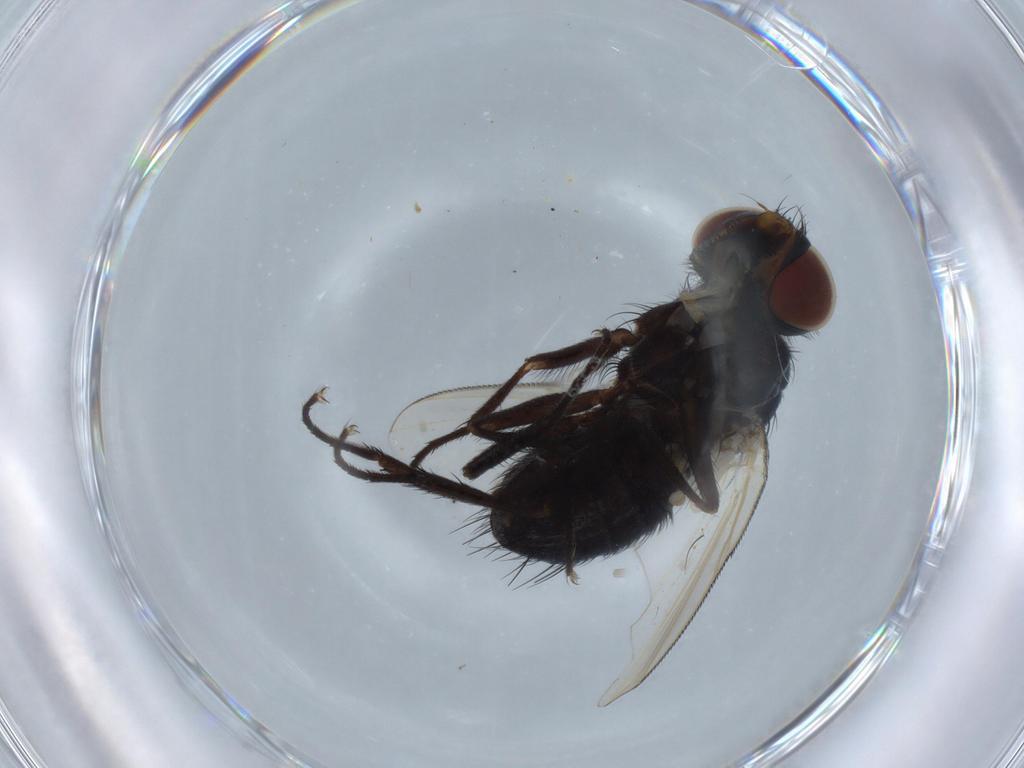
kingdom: Animalia
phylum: Arthropoda
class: Insecta
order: Diptera
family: Tachinidae
